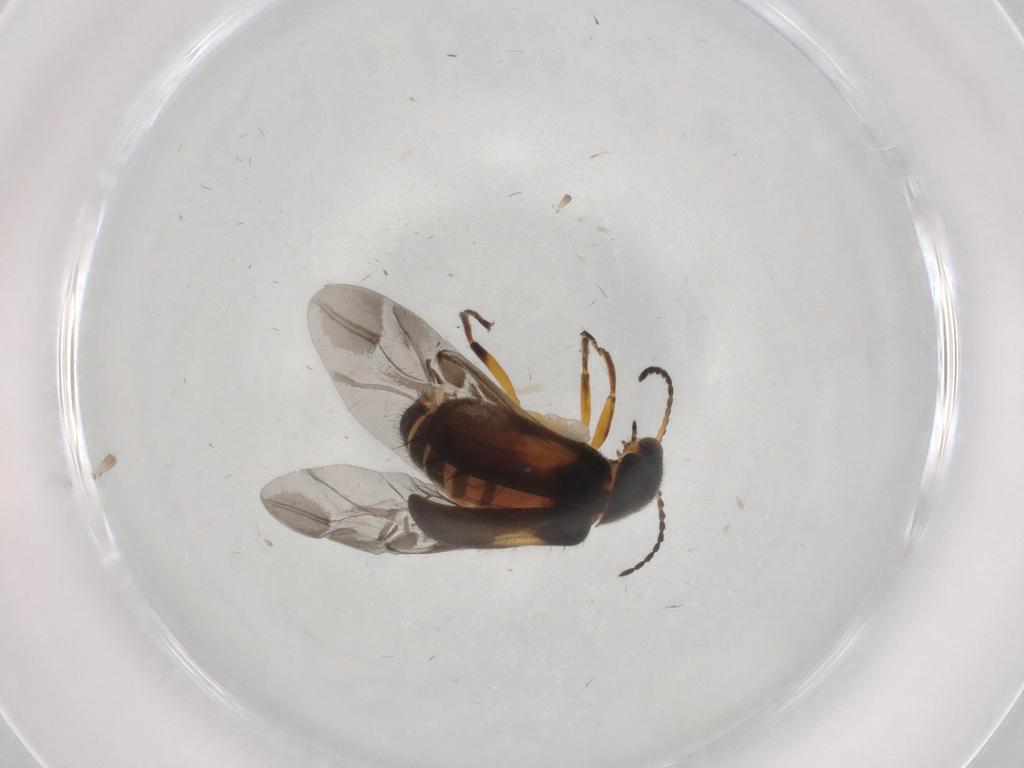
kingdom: Animalia
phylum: Arthropoda
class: Insecta
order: Coleoptera
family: Melyridae
